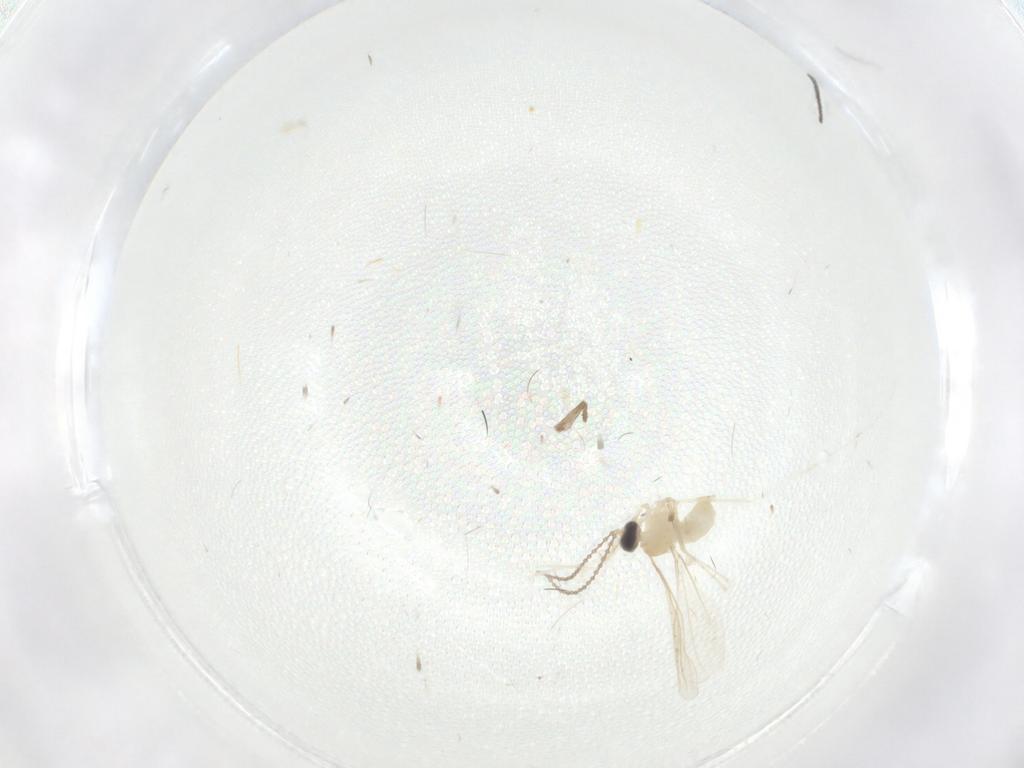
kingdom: Animalia
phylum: Arthropoda
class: Insecta
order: Diptera
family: Cecidomyiidae
